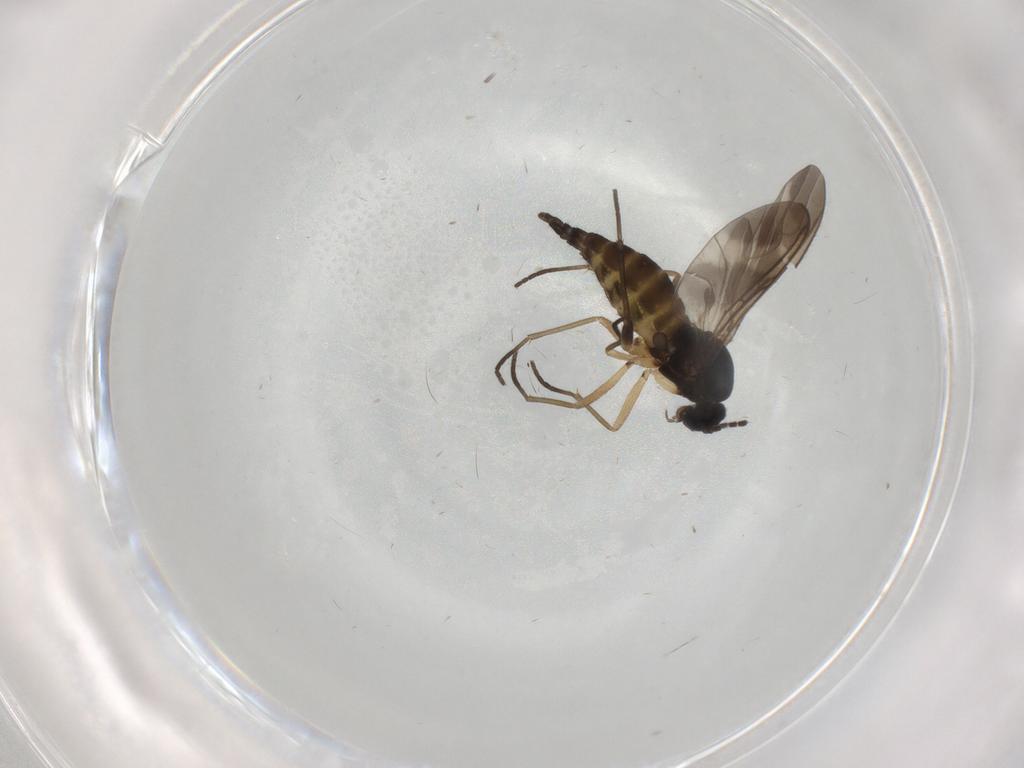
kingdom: Animalia
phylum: Arthropoda
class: Insecta
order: Diptera
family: Sciaridae
